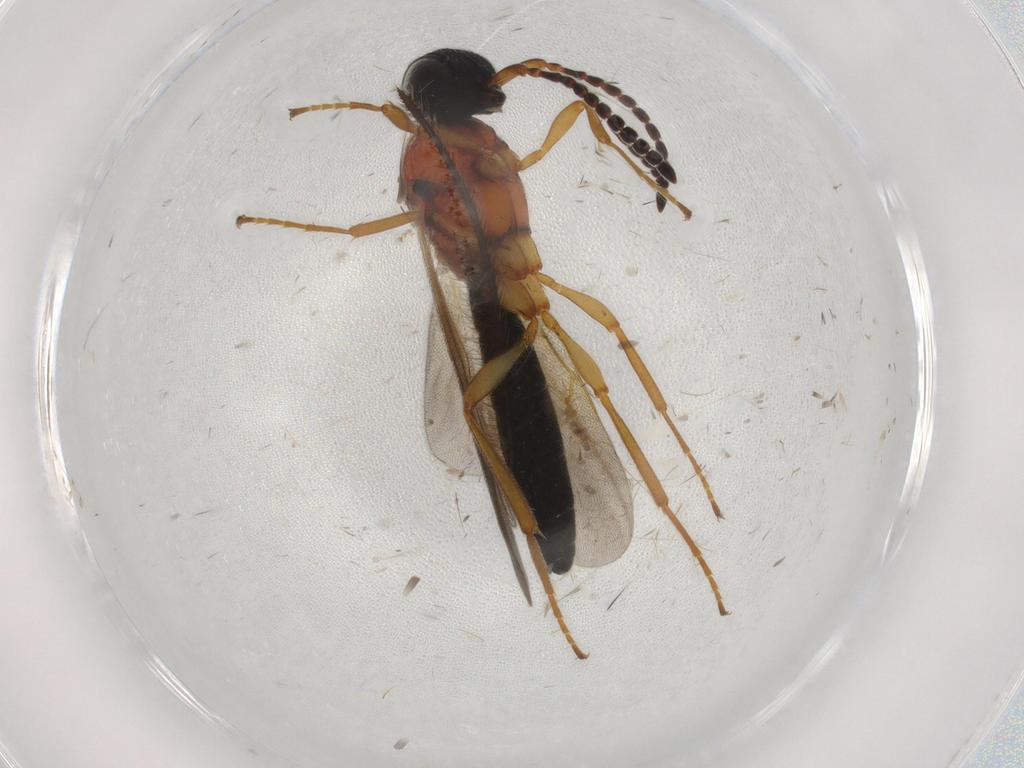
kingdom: Animalia
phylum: Arthropoda
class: Insecta
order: Hymenoptera
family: Scelionidae
